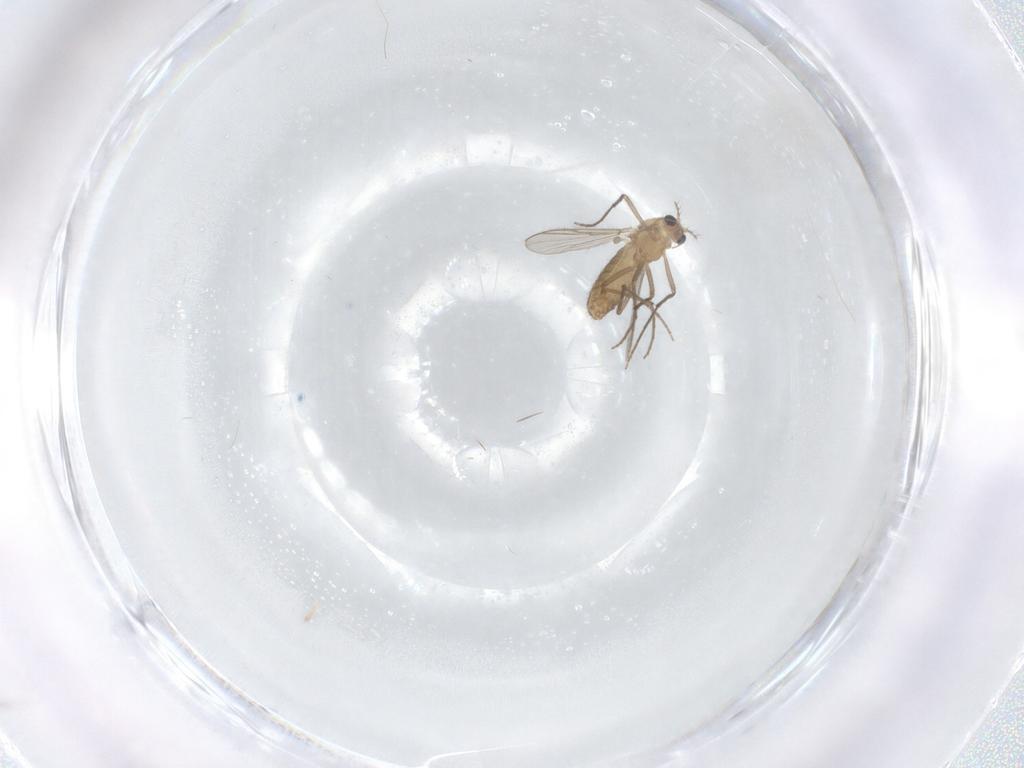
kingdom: Animalia
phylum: Arthropoda
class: Insecta
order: Diptera
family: Chironomidae
